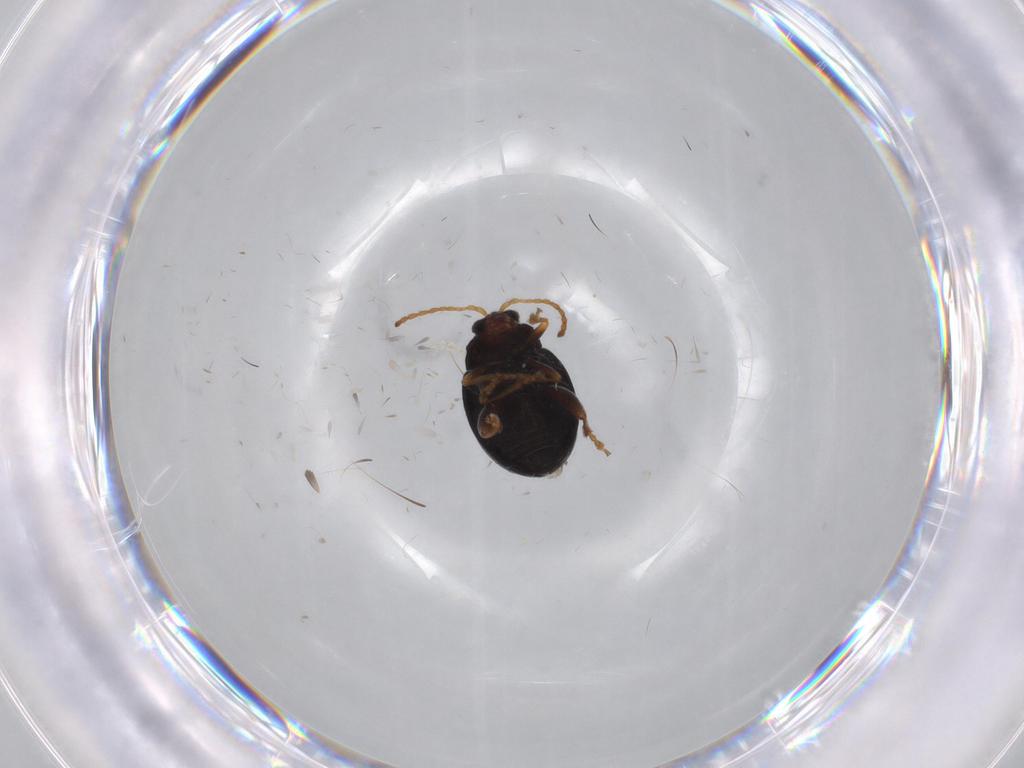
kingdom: Animalia
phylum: Arthropoda
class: Insecta
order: Coleoptera
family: Chrysomelidae
